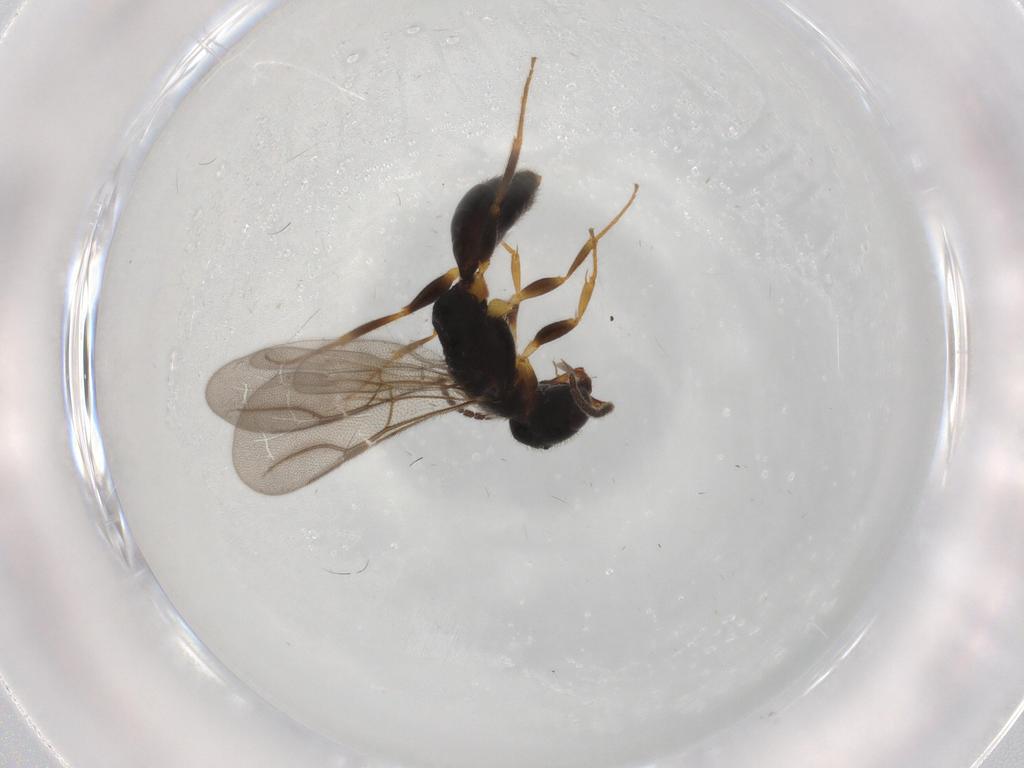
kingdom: Animalia
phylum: Arthropoda
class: Insecta
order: Hymenoptera
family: Bethylidae
